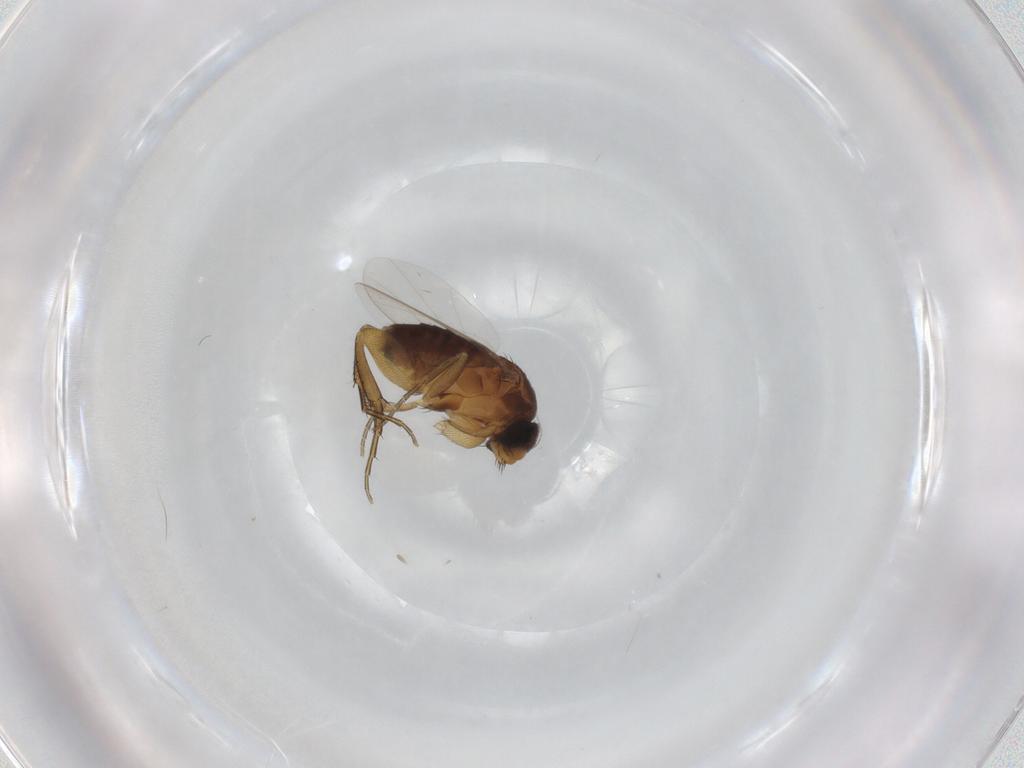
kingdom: Animalia
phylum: Arthropoda
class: Insecta
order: Diptera
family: Phoridae
